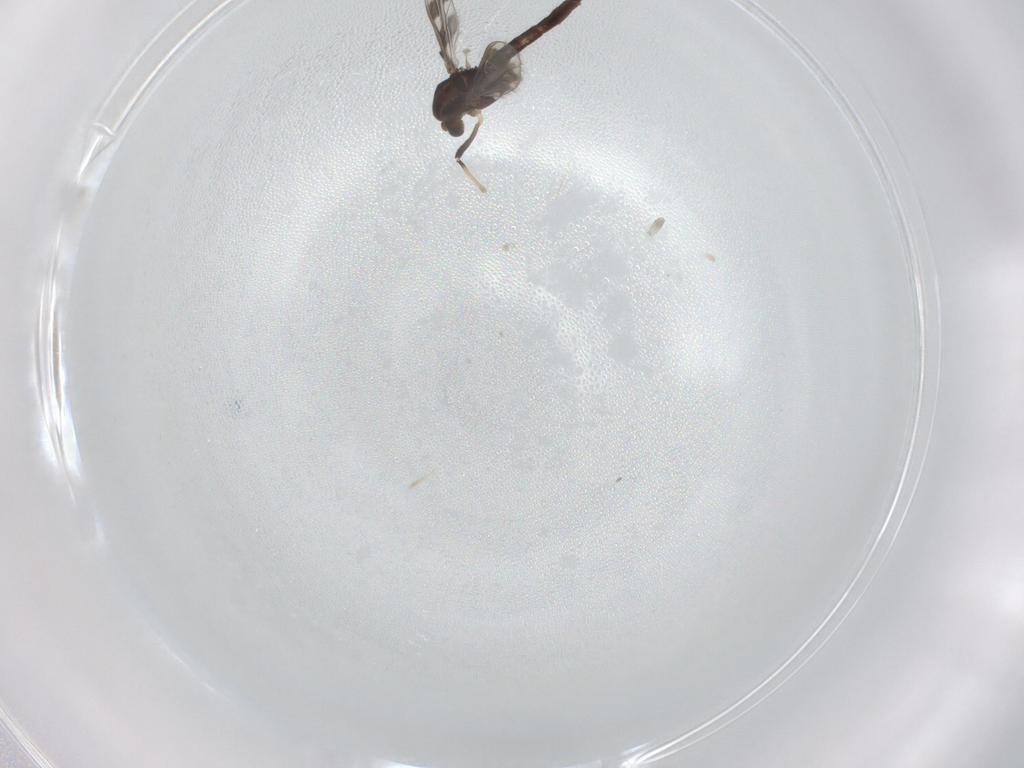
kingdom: Animalia
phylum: Arthropoda
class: Insecta
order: Diptera
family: Chironomidae
